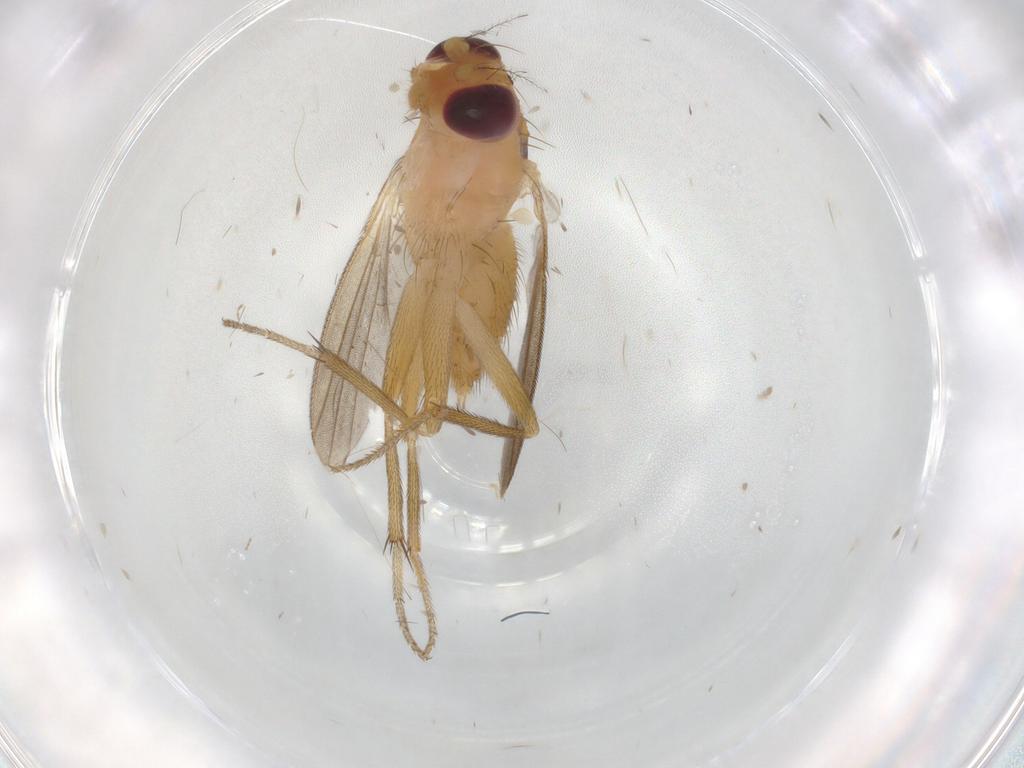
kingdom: Animalia
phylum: Arthropoda
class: Insecta
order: Diptera
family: Clusiidae
